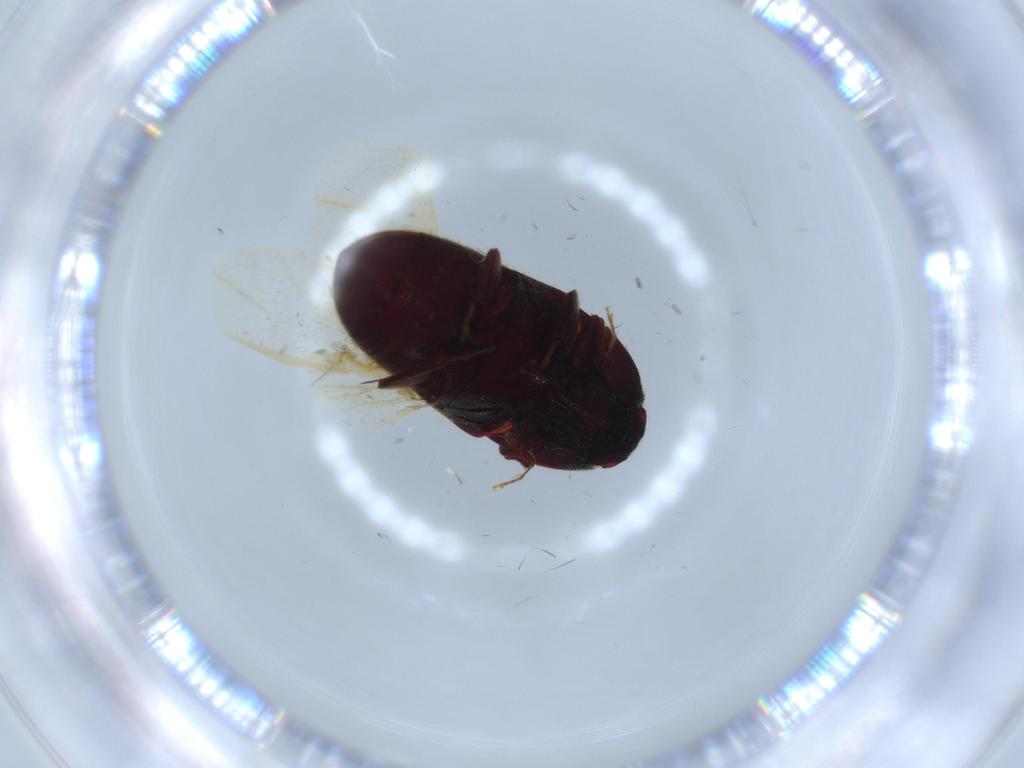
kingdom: Animalia
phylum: Arthropoda
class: Insecta
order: Coleoptera
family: Throscidae
